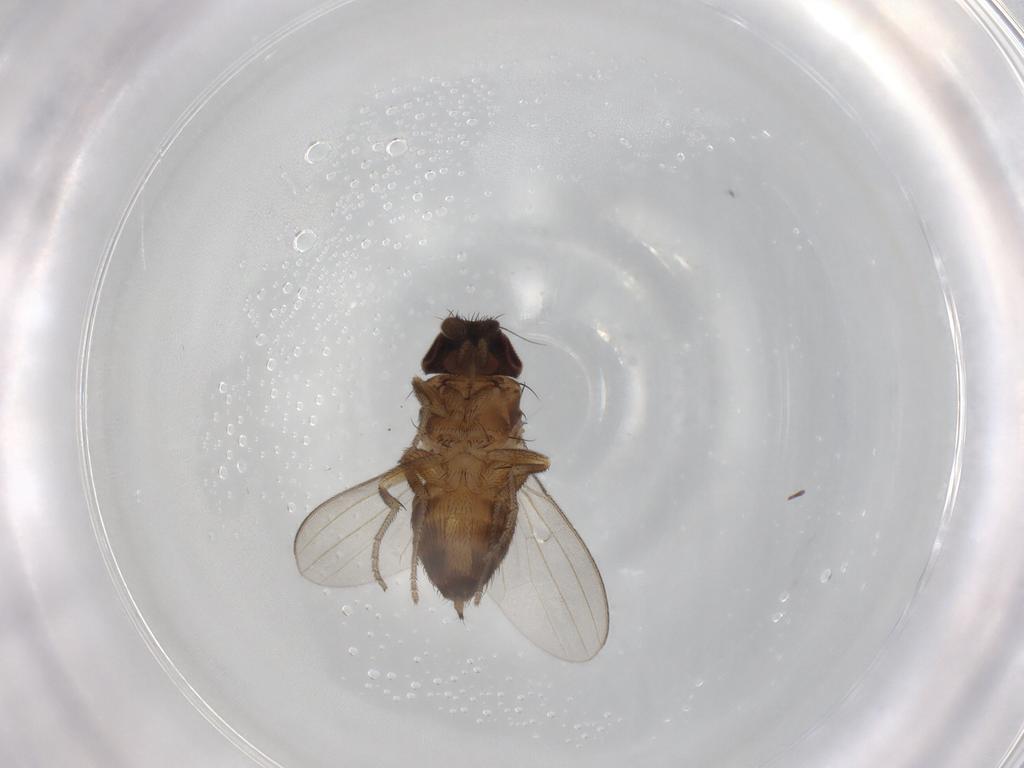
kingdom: Animalia
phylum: Arthropoda
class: Insecta
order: Diptera
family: Milichiidae
